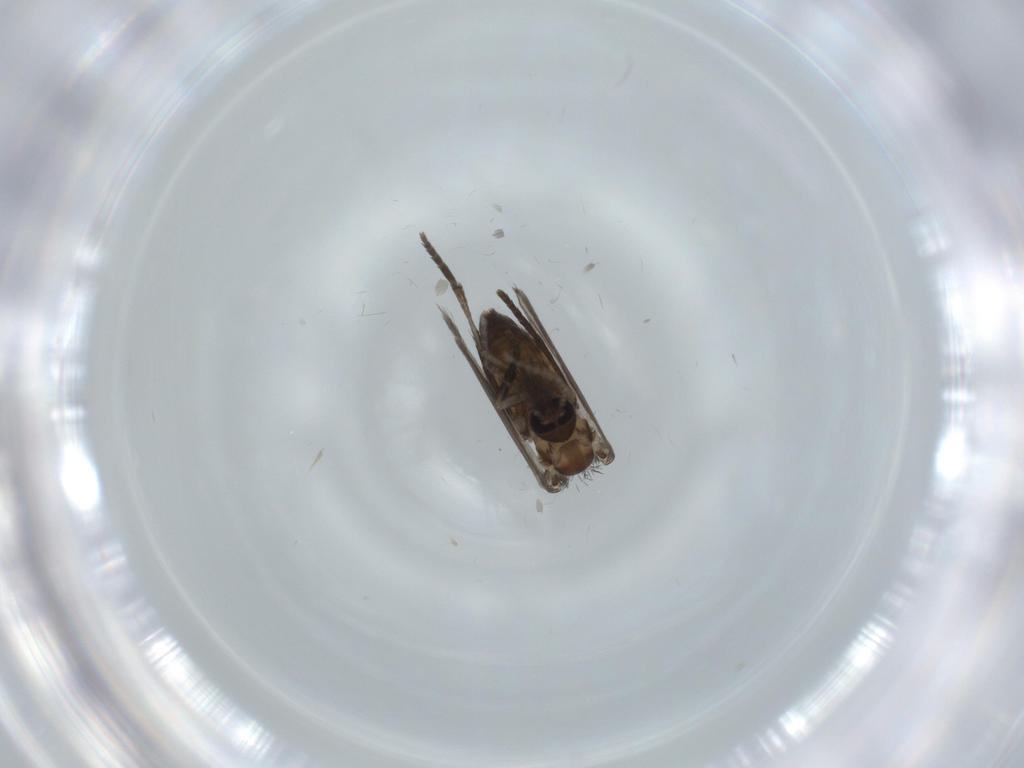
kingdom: Animalia
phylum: Arthropoda
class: Insecta
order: Diptera
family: Psychodidae
